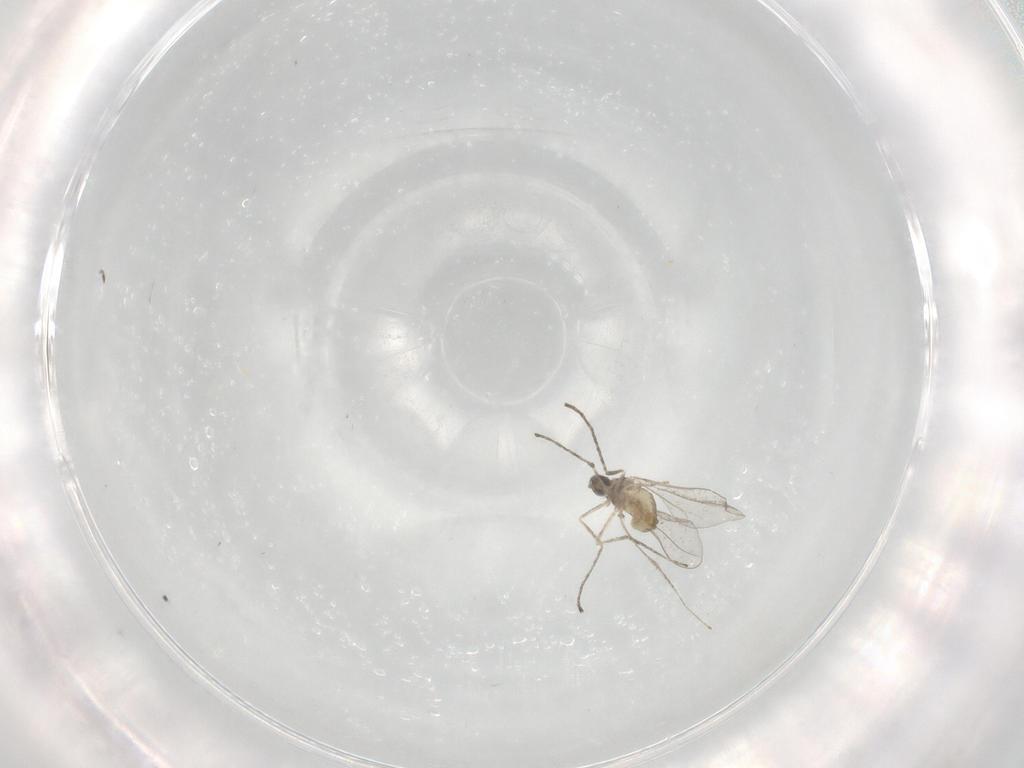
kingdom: Animalia
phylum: Arthropoda
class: Insecta
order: Diptera
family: Cecidomyiidae
